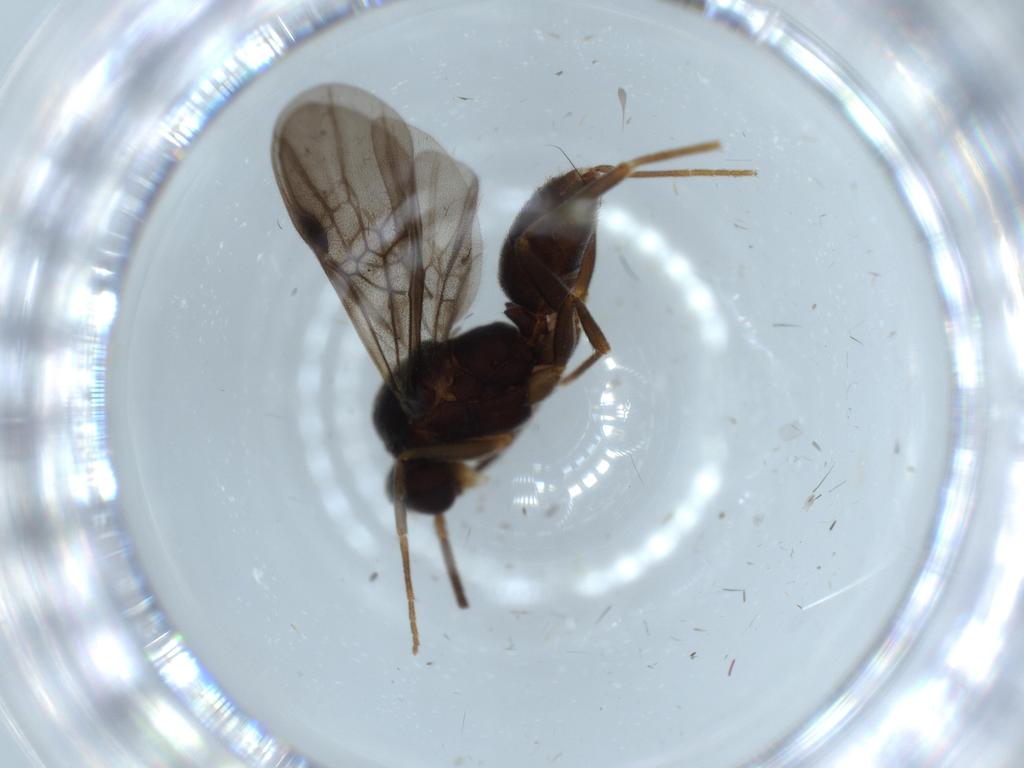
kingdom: Animalia
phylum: Arthropoda
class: Insecta
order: Hymenoptera
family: Formicidae
